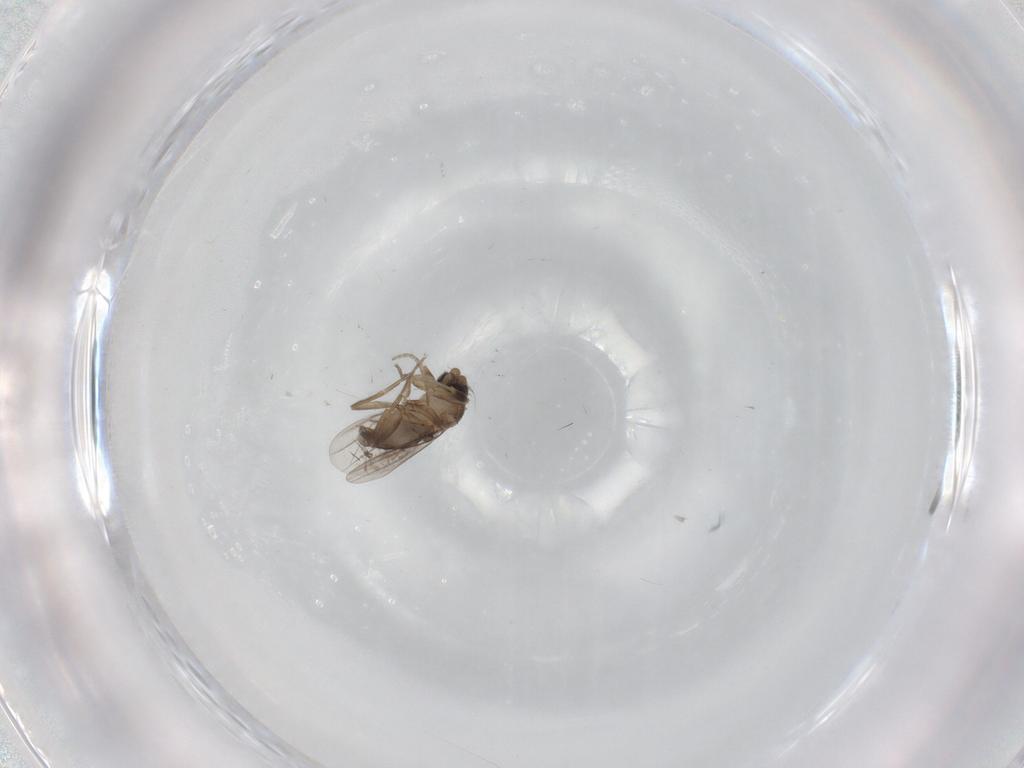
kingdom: Animalia
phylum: Arthropoda
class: Insecta
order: Diptera
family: Phoridae
